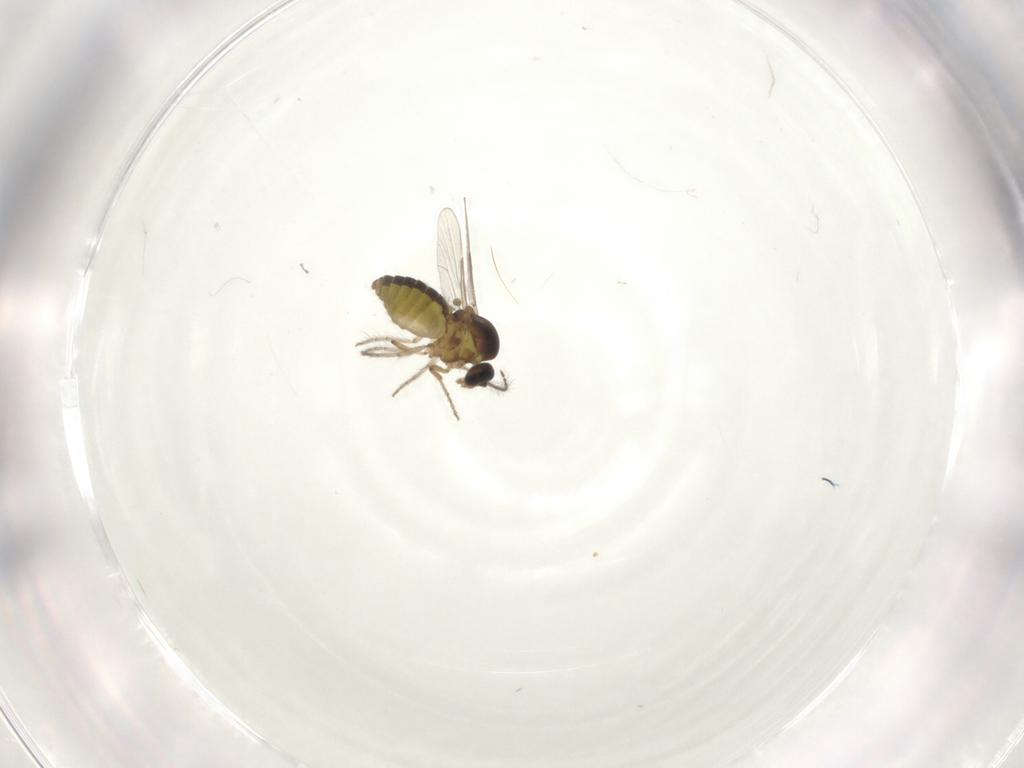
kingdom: Animalia
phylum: Arthropoda
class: Insecta
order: Diptera
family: Ceratopogonidae
